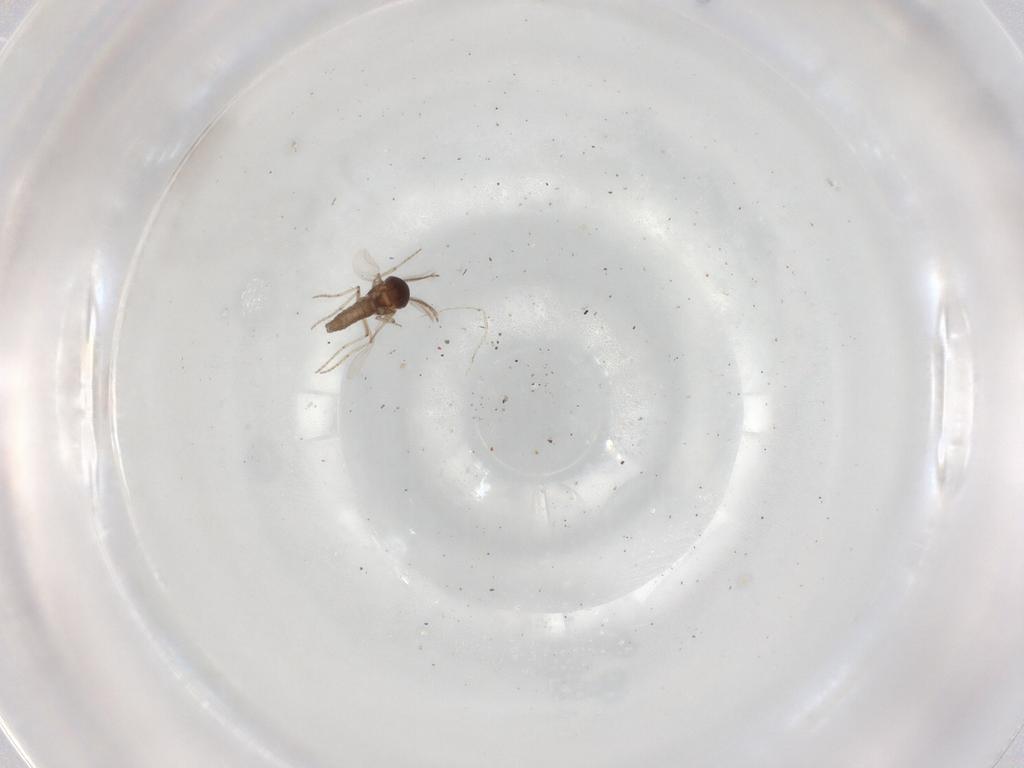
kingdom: Animalia
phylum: Arthropoda
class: Insecta
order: Diptera
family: Ceratopogonidae
